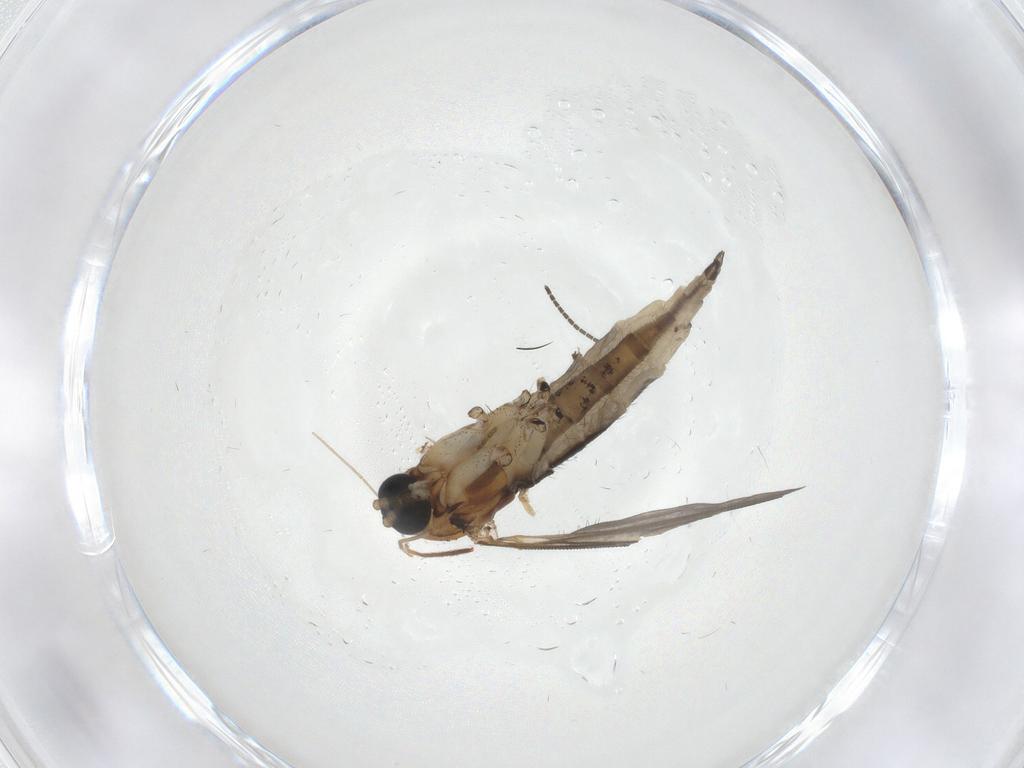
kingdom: Animalia
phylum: Arthropoda
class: Insecta
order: Diptera
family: Sciaridae
